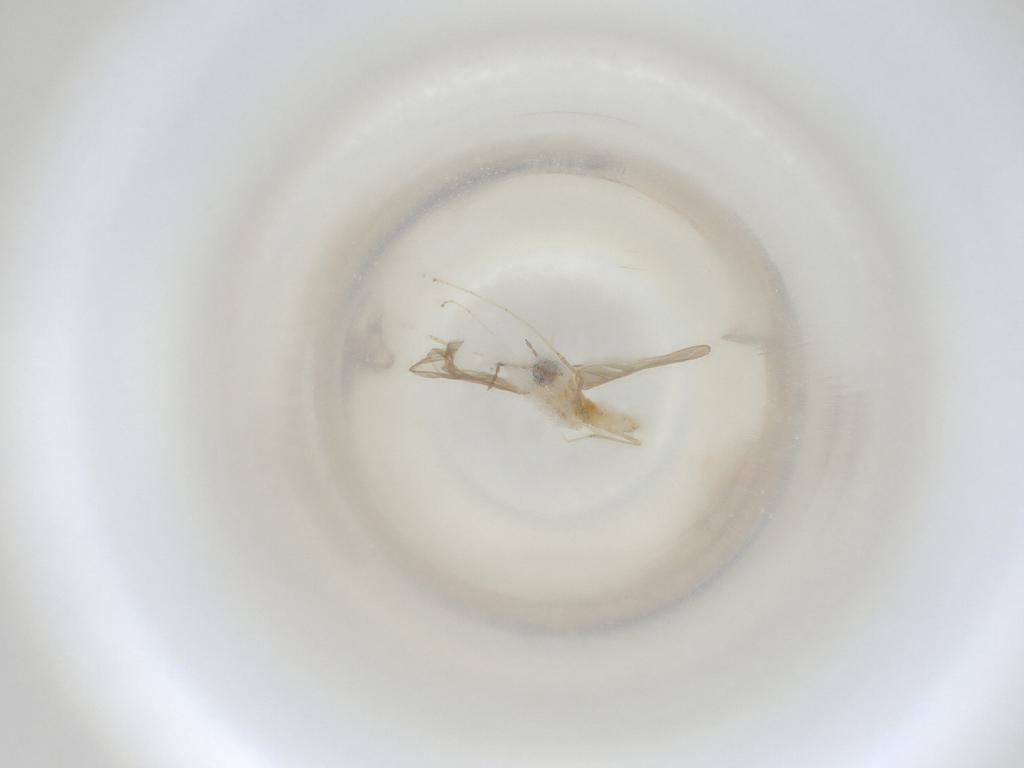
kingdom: Animalia
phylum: Arthropoda
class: Insecta
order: Diptera
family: Cecidomyiidae
